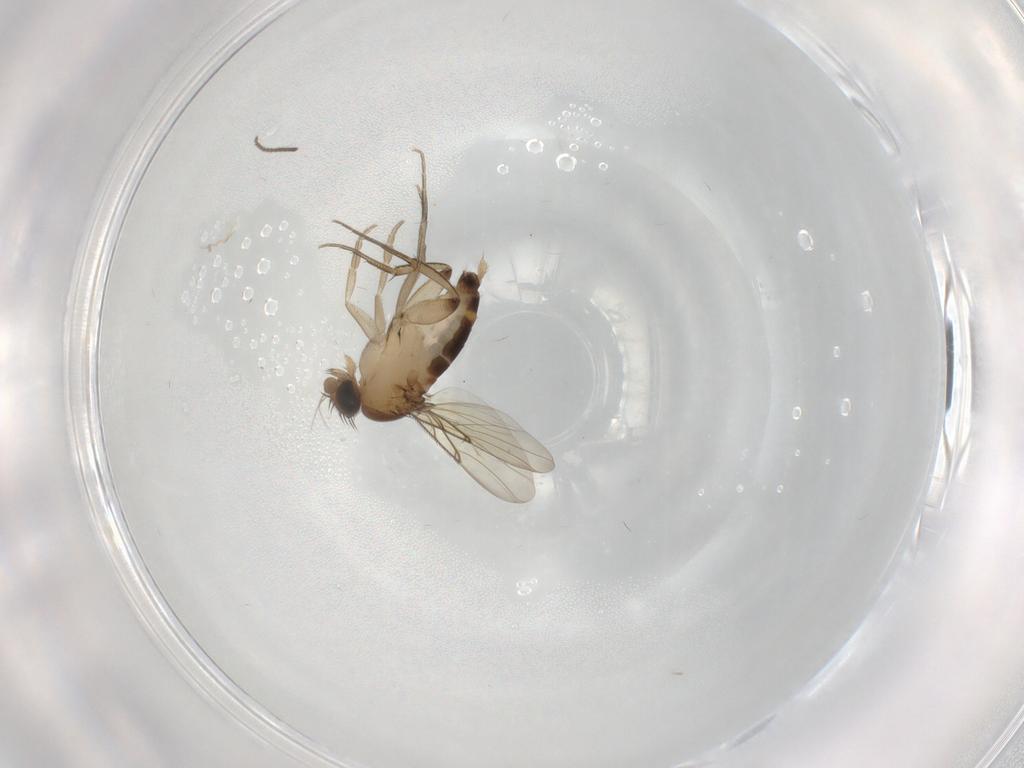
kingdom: Animalia
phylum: Arthropoda
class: Insecta
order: Diptera
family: Sciaridae
